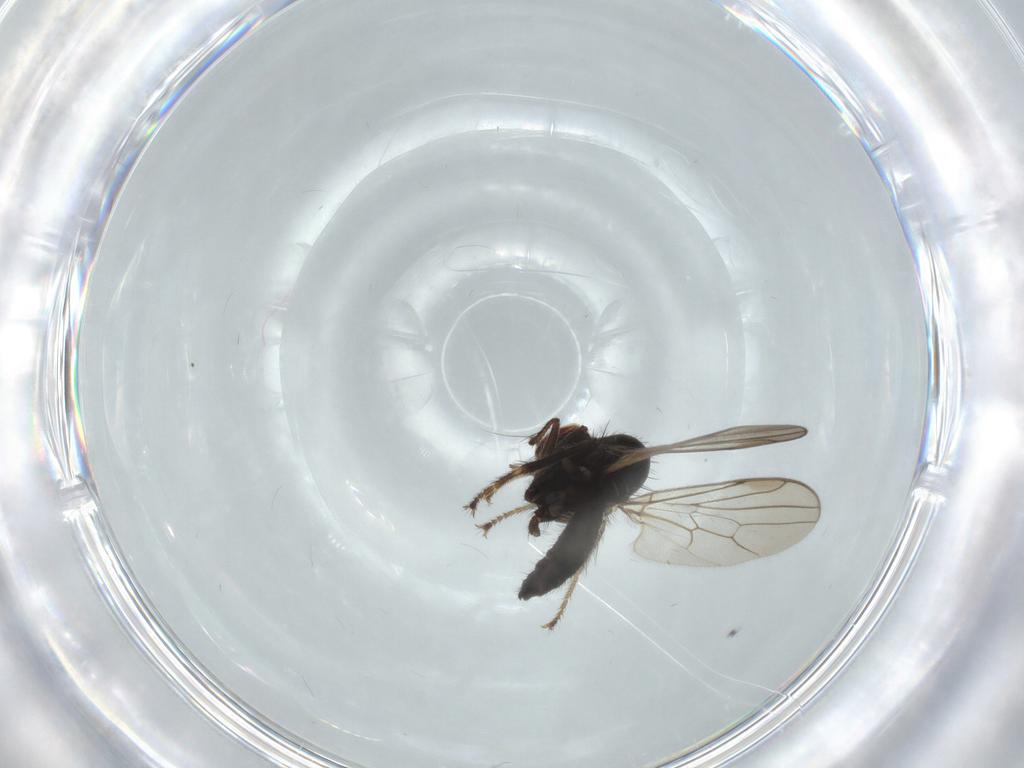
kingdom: Animalia
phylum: Arthropoda
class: Insecta
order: Diptera
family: Hybotidae
